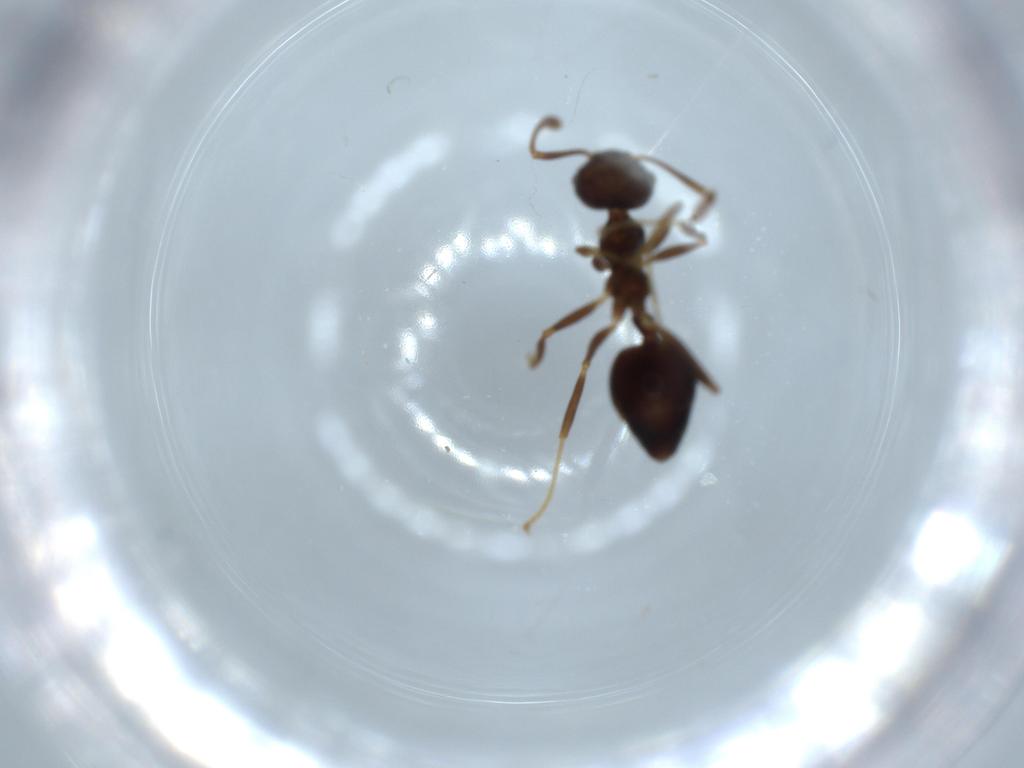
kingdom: Animalia
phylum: Arthropoda
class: Insecta
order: Hymenoptera
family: Formicidae
